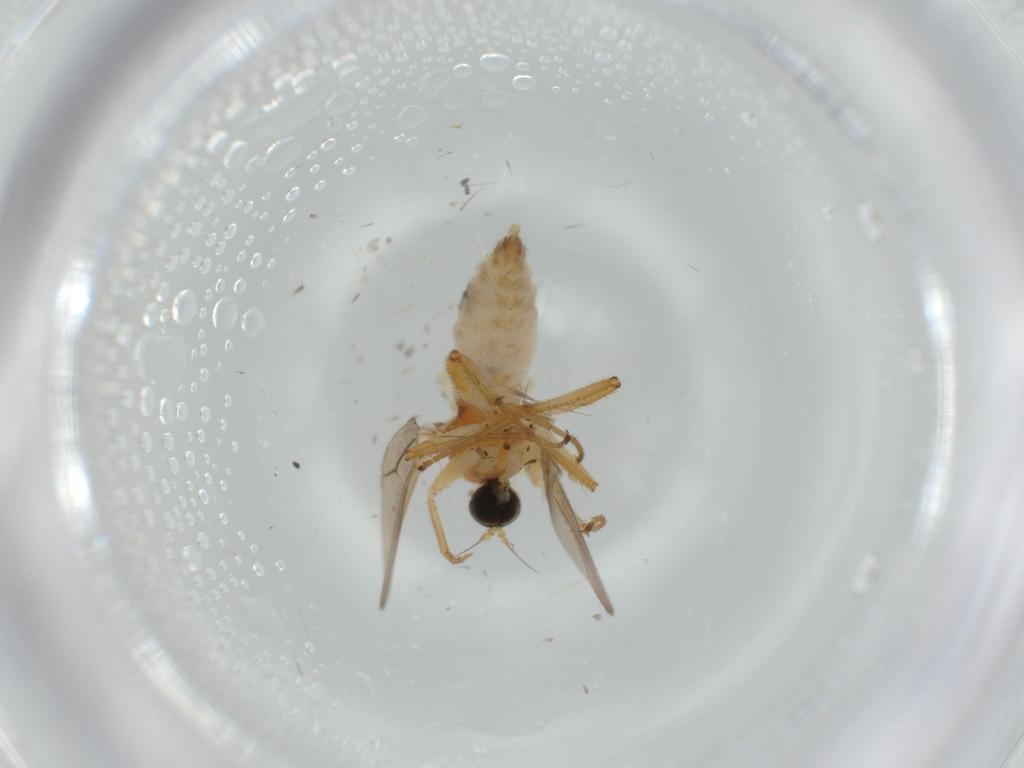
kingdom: Animalia
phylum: Arthropoda
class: Insecta
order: Diptera
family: Hybotidae
